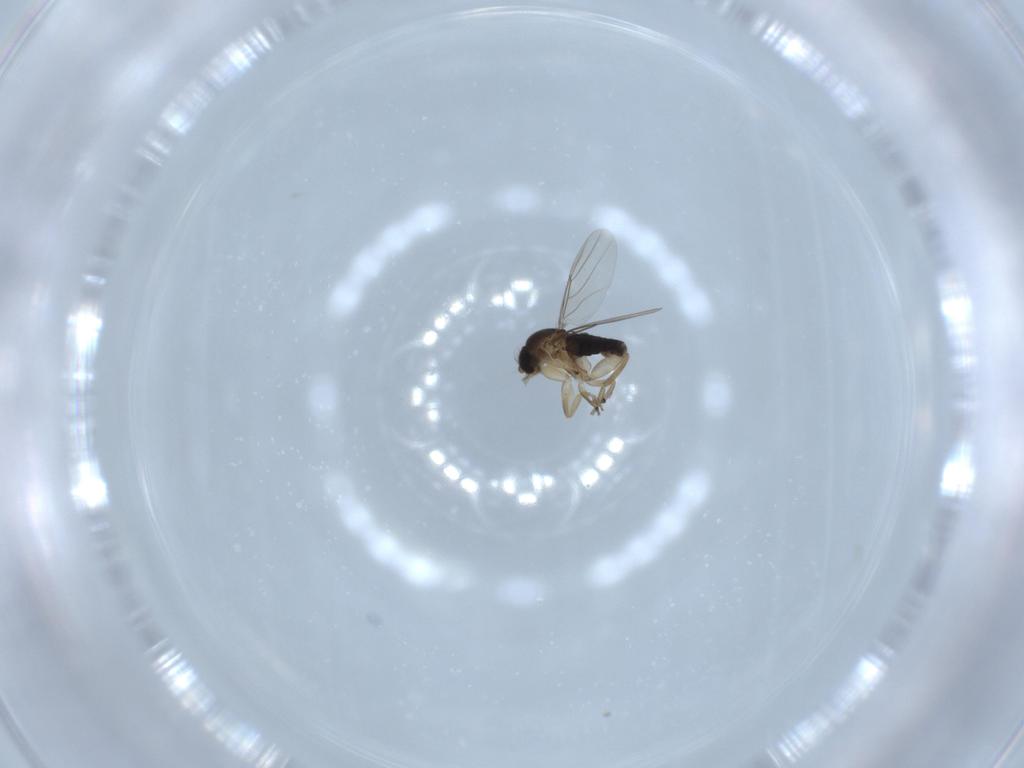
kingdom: Animalia
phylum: Arthropoda
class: Insecta
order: Diptera
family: Phoridae
